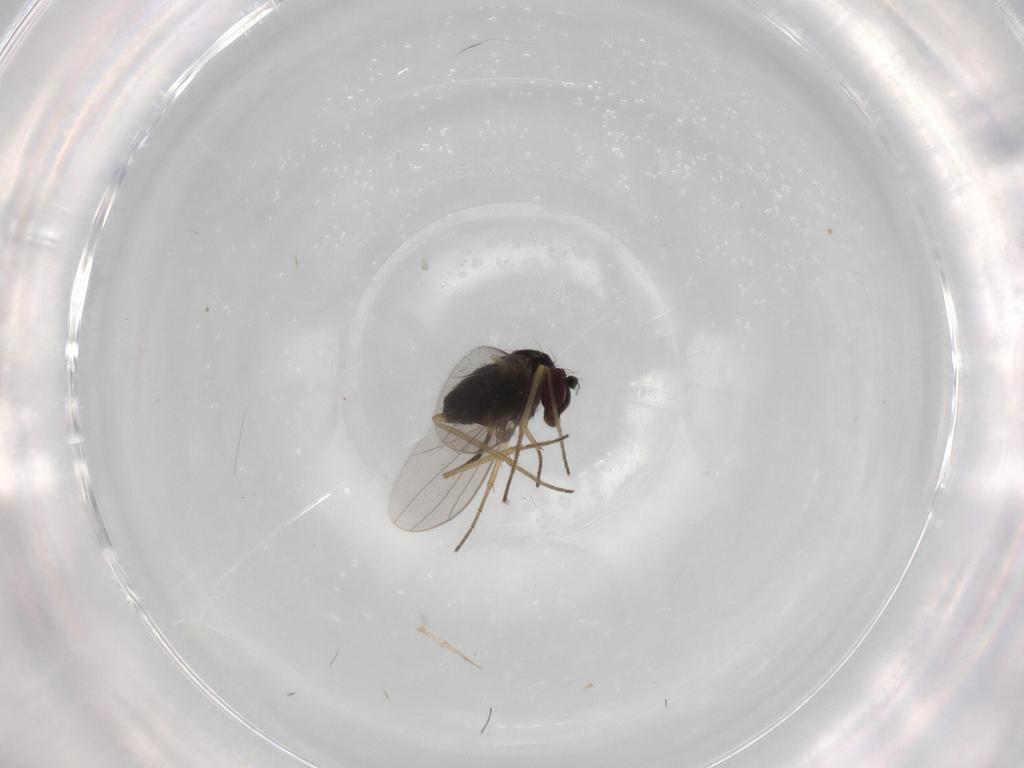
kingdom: Animalia
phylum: Arthropoda
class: Insecta
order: Diptera
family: Dolichopodidae
